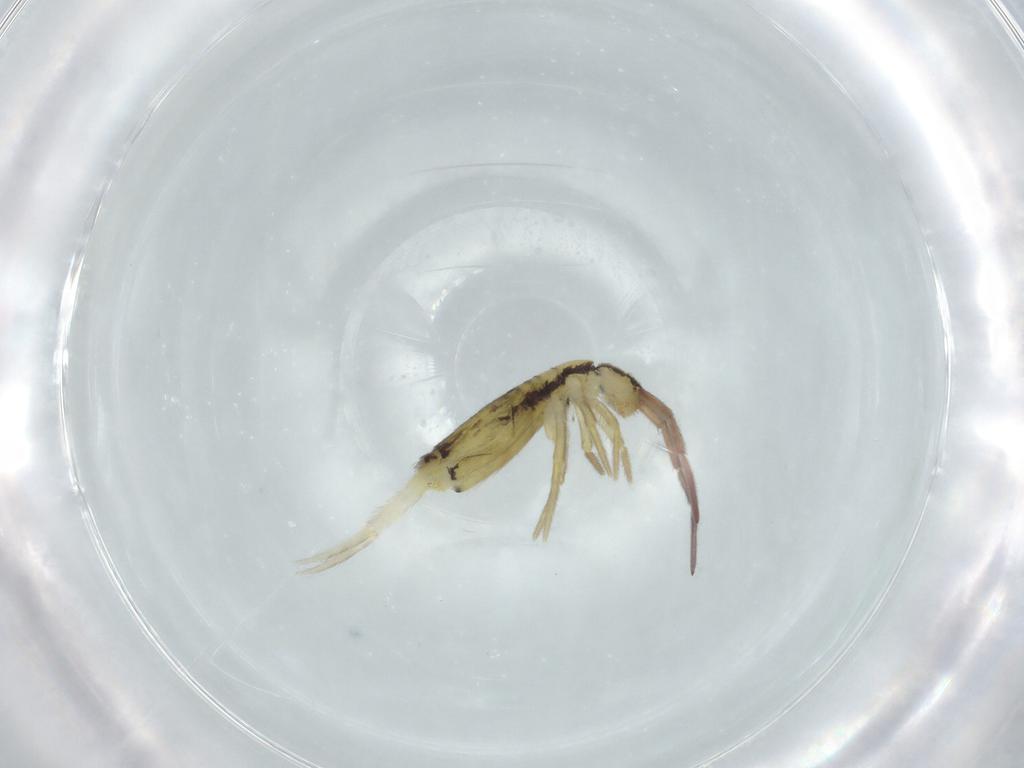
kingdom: Animalia
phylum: Arthropoda
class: Collembola
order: Entomobryomorpha
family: Entomobryidae
